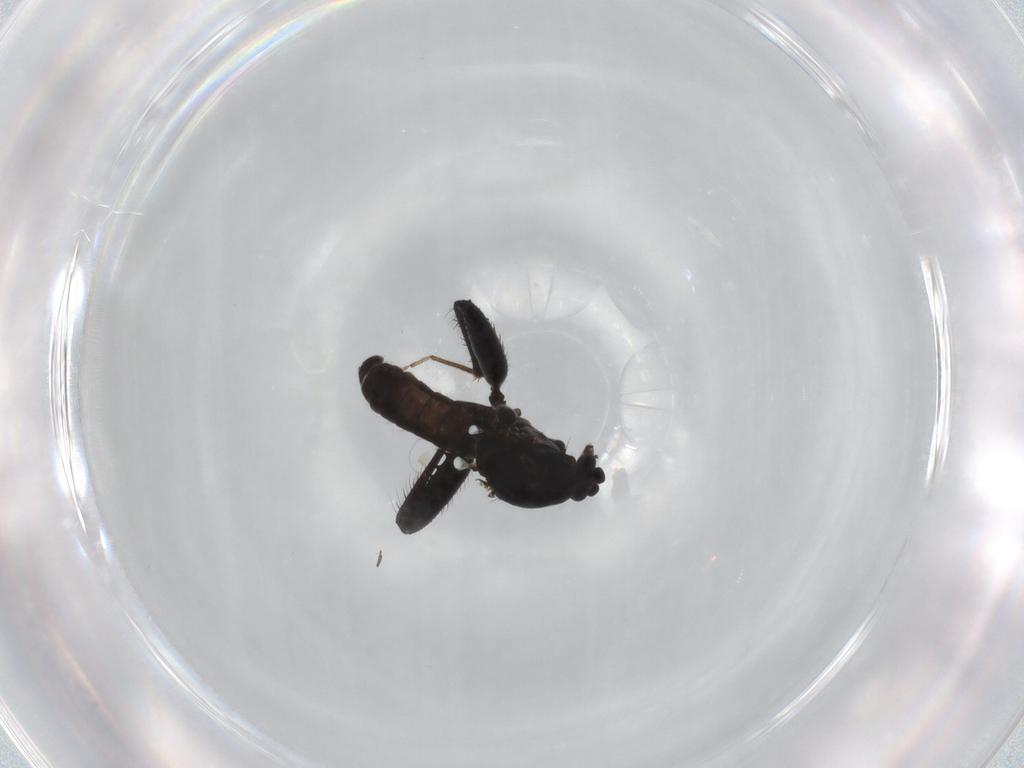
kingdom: Animalia
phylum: Arthropoda
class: Insecta
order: Diptera
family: Ceratopogonidae
